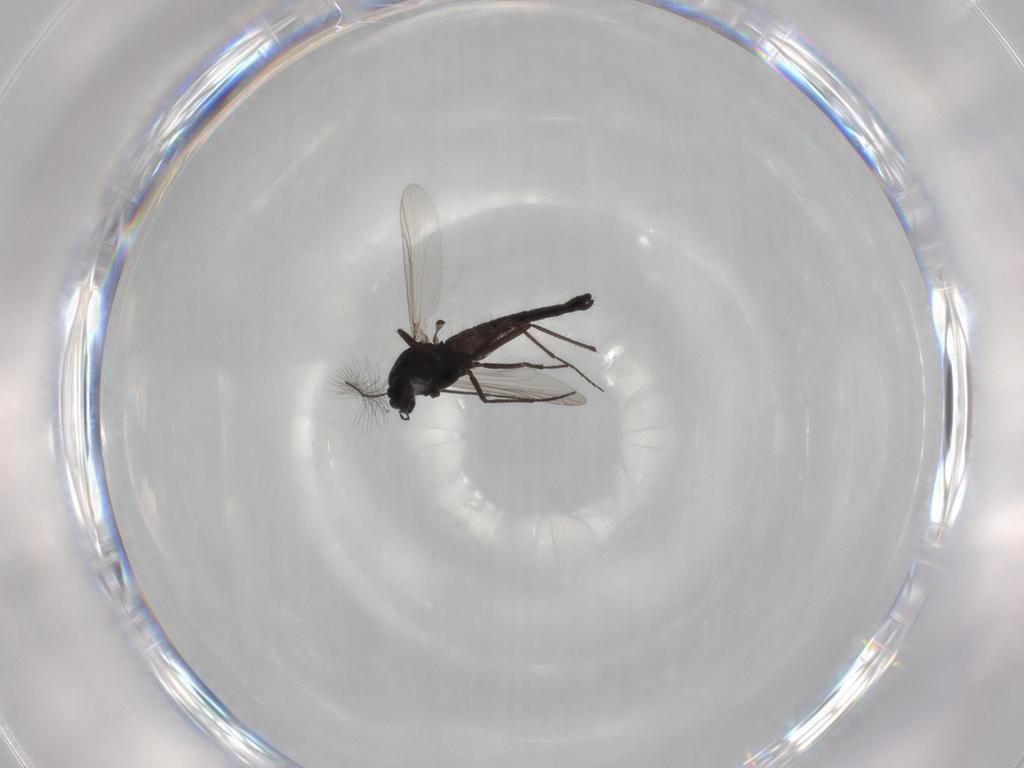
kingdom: Animalia
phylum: Arthropoda
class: Insecta
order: Diptera
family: Chironomidae
